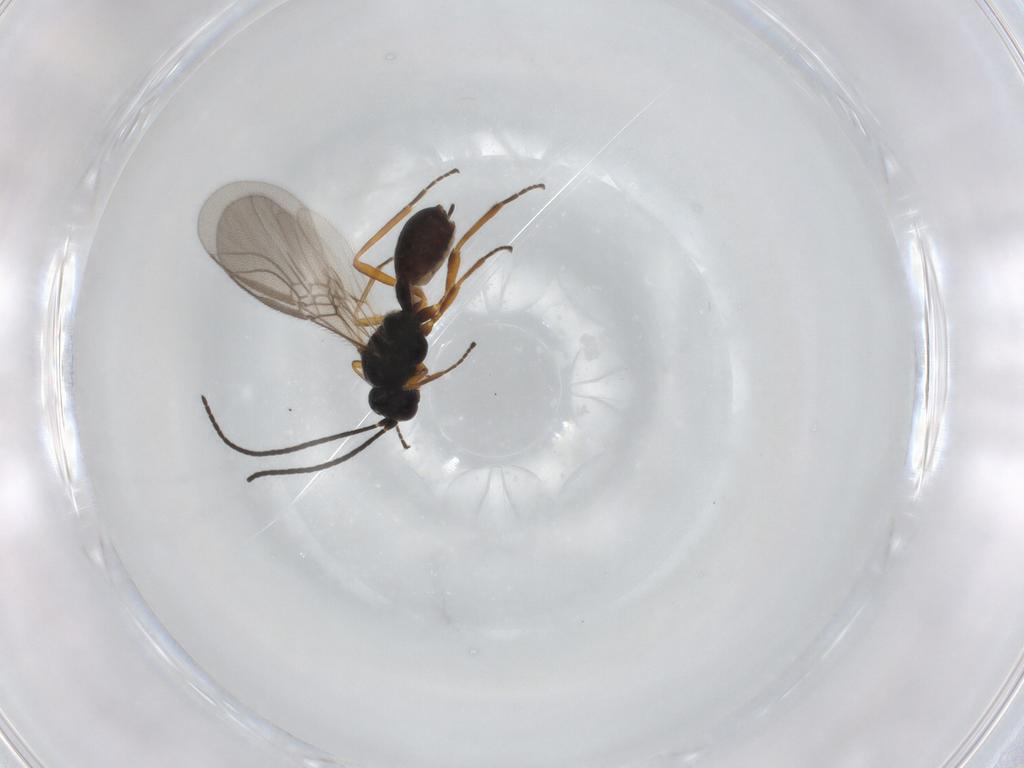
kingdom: Animalia
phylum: Arthropoda
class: Insecta
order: Hymenoptera
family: Braconidae
